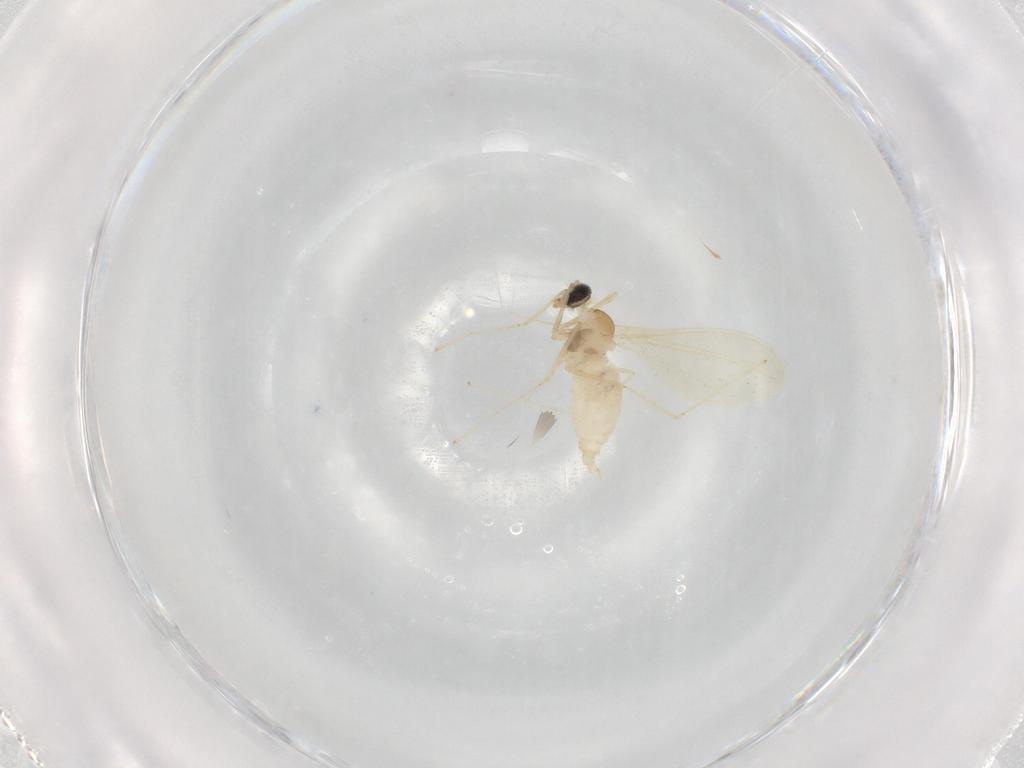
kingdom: Animalia
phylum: Arthropoda
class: Insecta
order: Diptera
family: Cecidomyiidae
